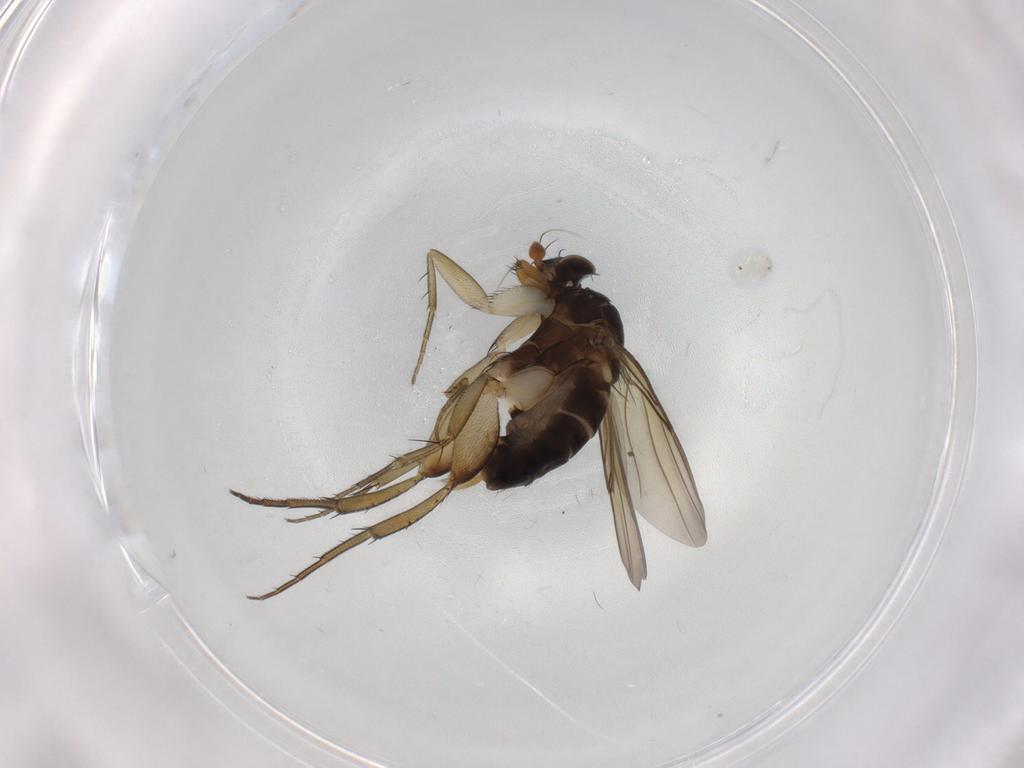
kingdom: Animalia
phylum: Arthropoda
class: Insecta
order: Diptera
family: Phoridae
